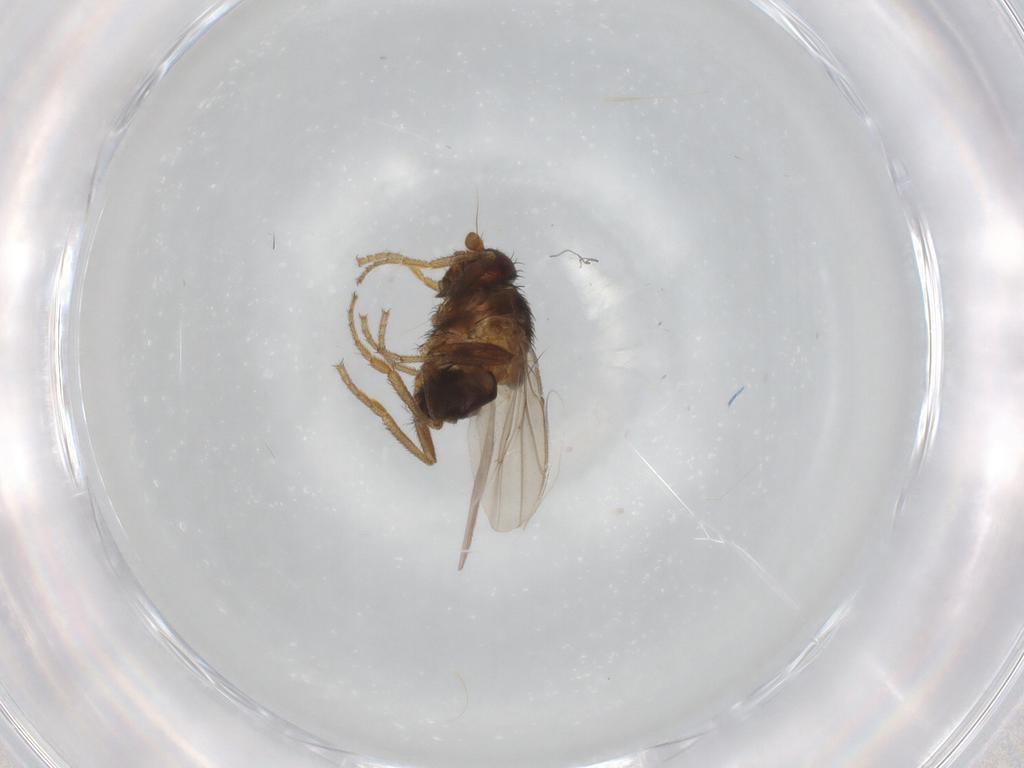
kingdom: Animalia
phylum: Arthropoda
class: Insecta
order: Diptera
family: Sphaeroceridae
